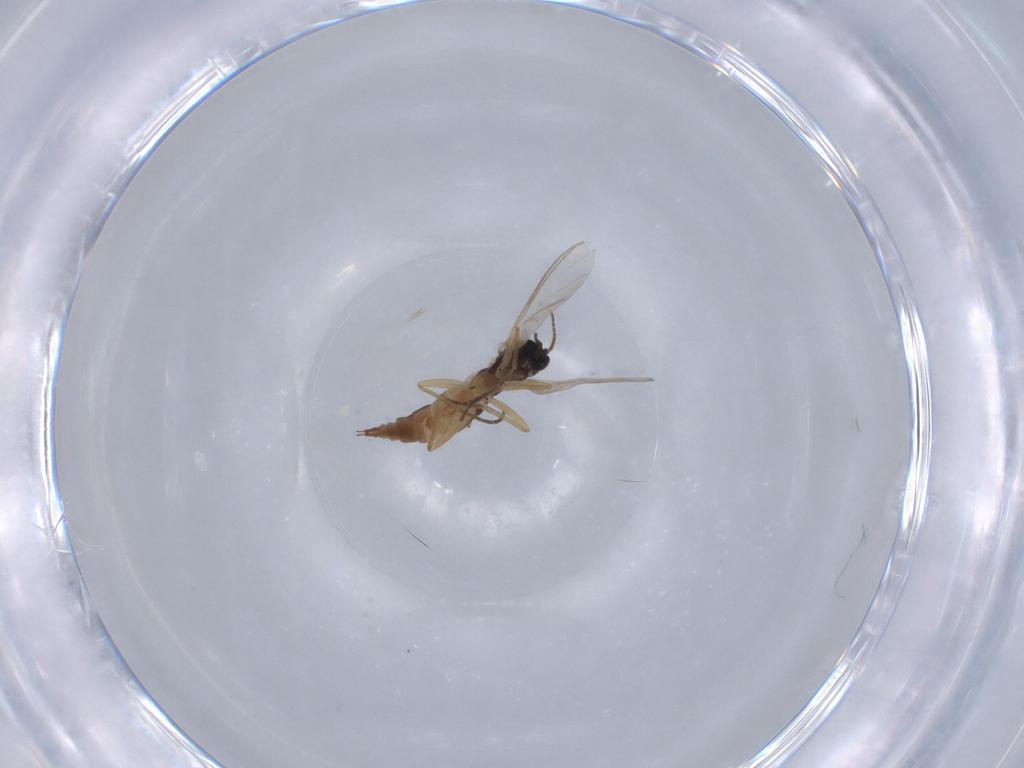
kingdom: Animalia
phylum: Arthropoda
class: Insecta
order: Diptera
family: Sciaridae
